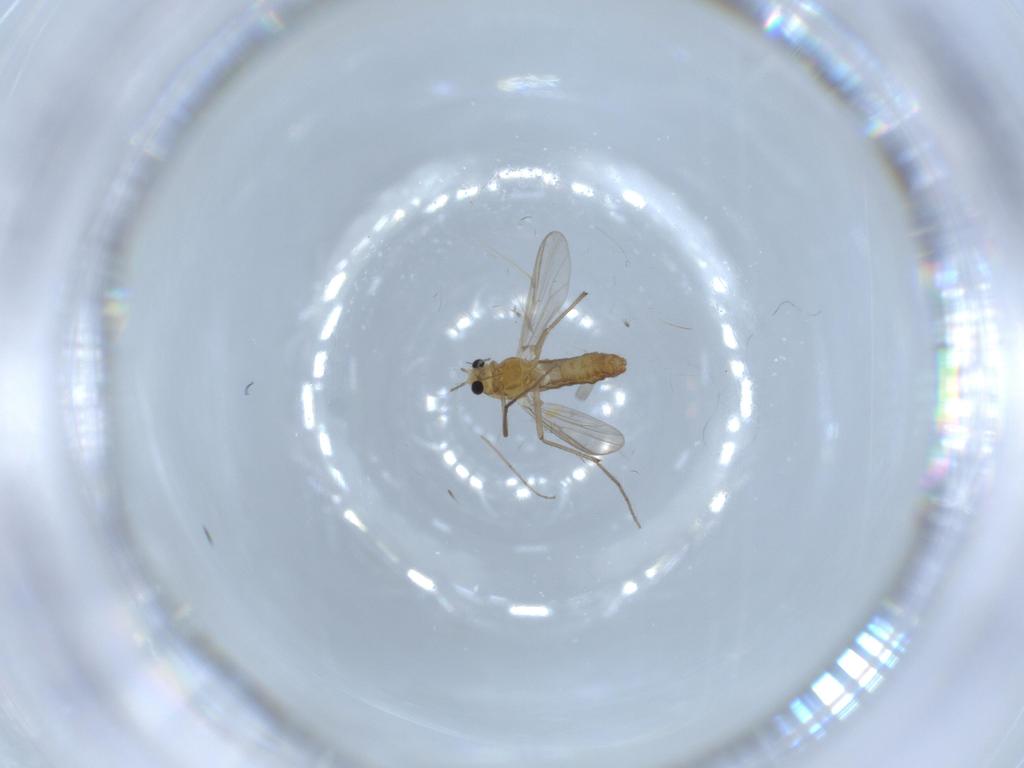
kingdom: Animalia
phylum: Arthropoda
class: Insecta
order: Diptera
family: Chironomidae
